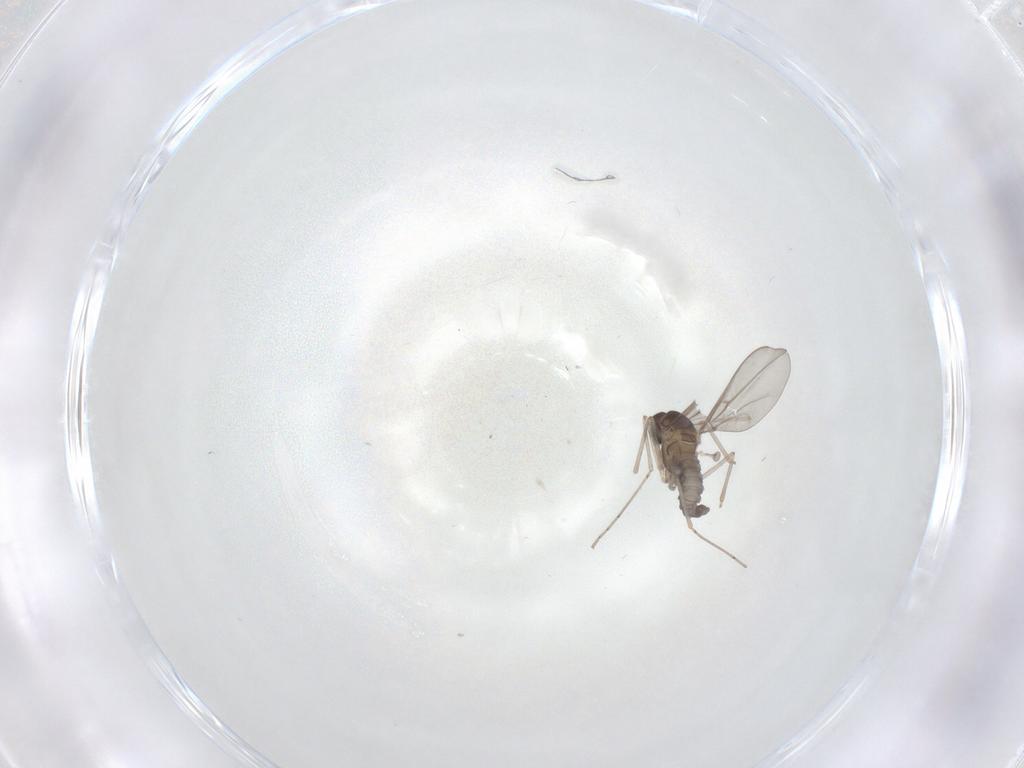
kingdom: Animalia
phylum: Arthropoda
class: Insecta
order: Diptera
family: Cecidomyiidae
